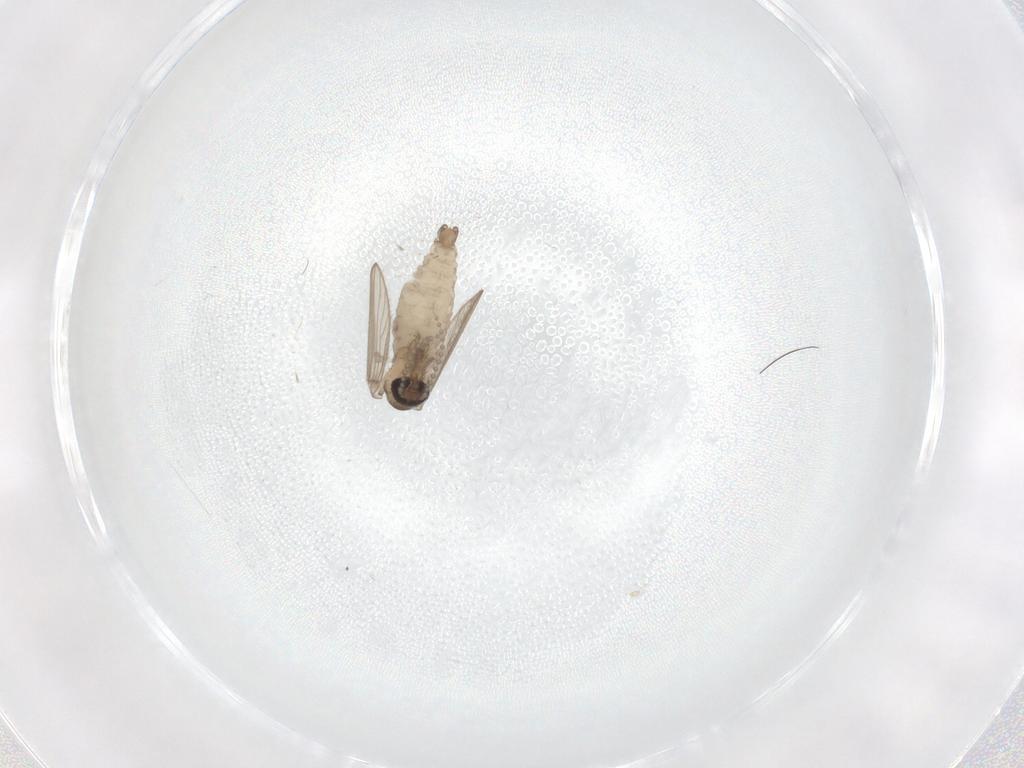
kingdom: Animalia
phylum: Arthropoda
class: Insecta
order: Diptera
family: Psychodidae
